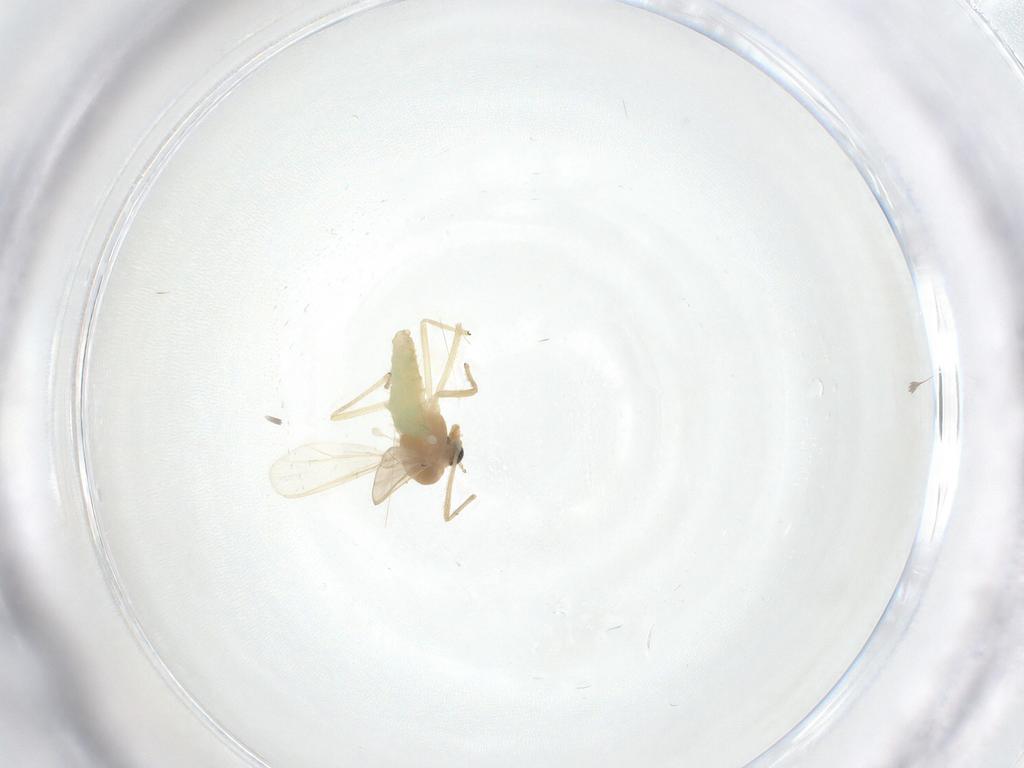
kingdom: Animalia
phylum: Arthropoda
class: Insecta
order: Diptera
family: Chironomidae
